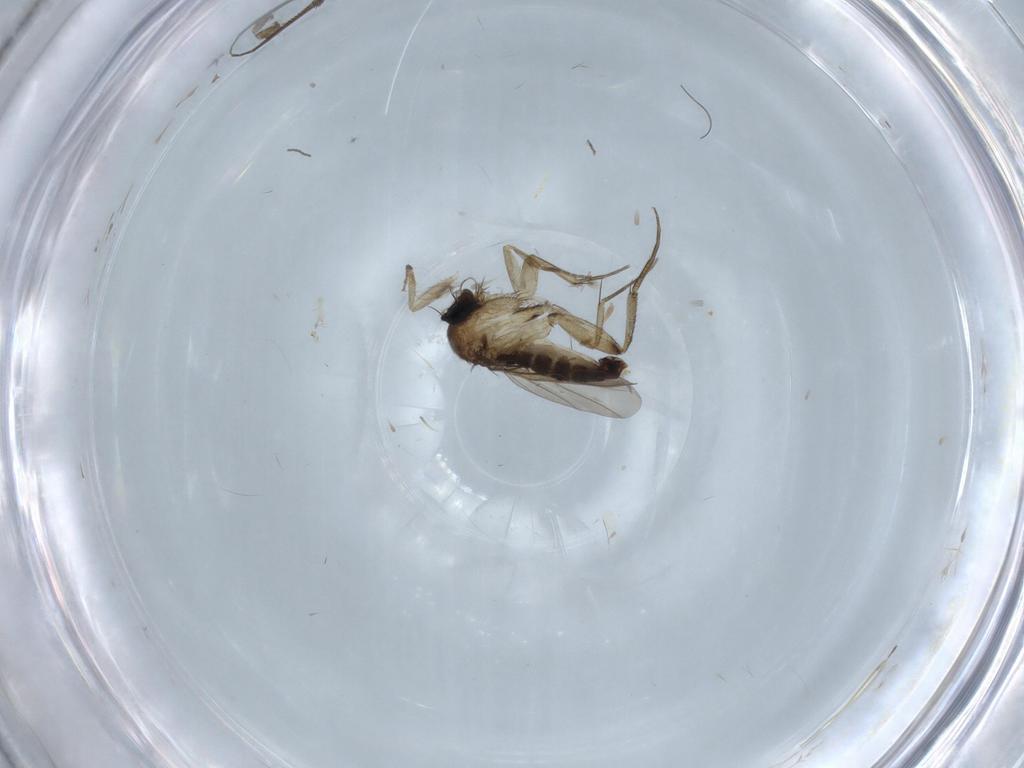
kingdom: Animalia
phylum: Arthropoda
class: Insecta
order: Diptera
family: Phoridae
